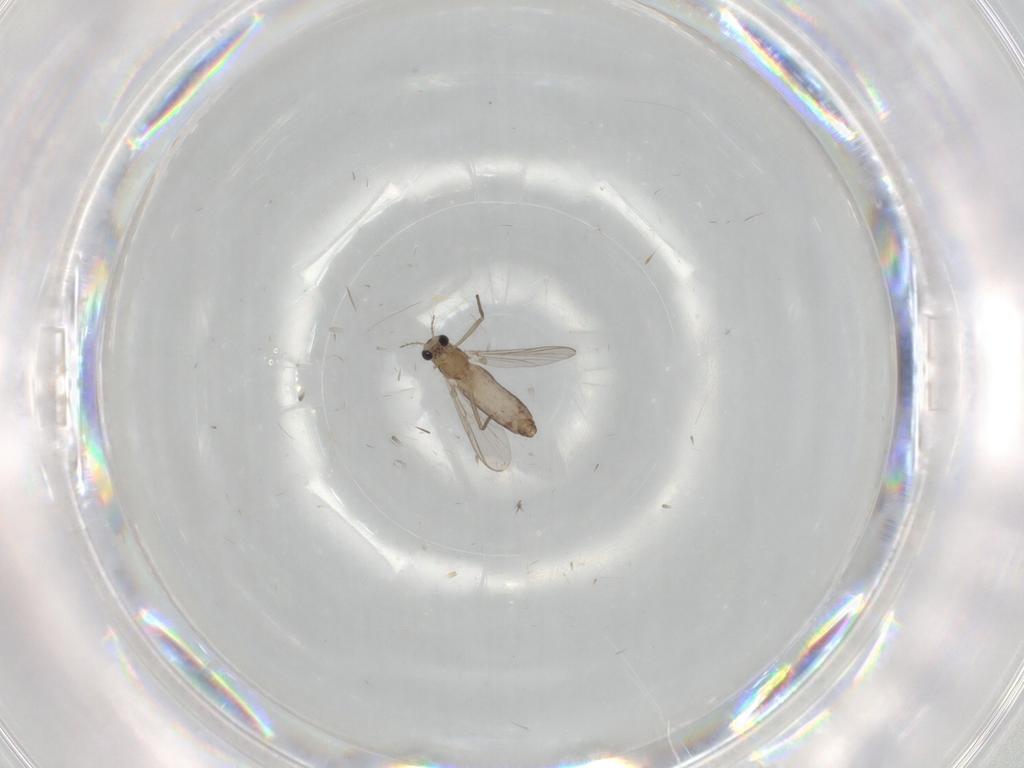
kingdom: Animalia
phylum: Arthropoda
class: Insecta
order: Diptera
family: Chironomidae
